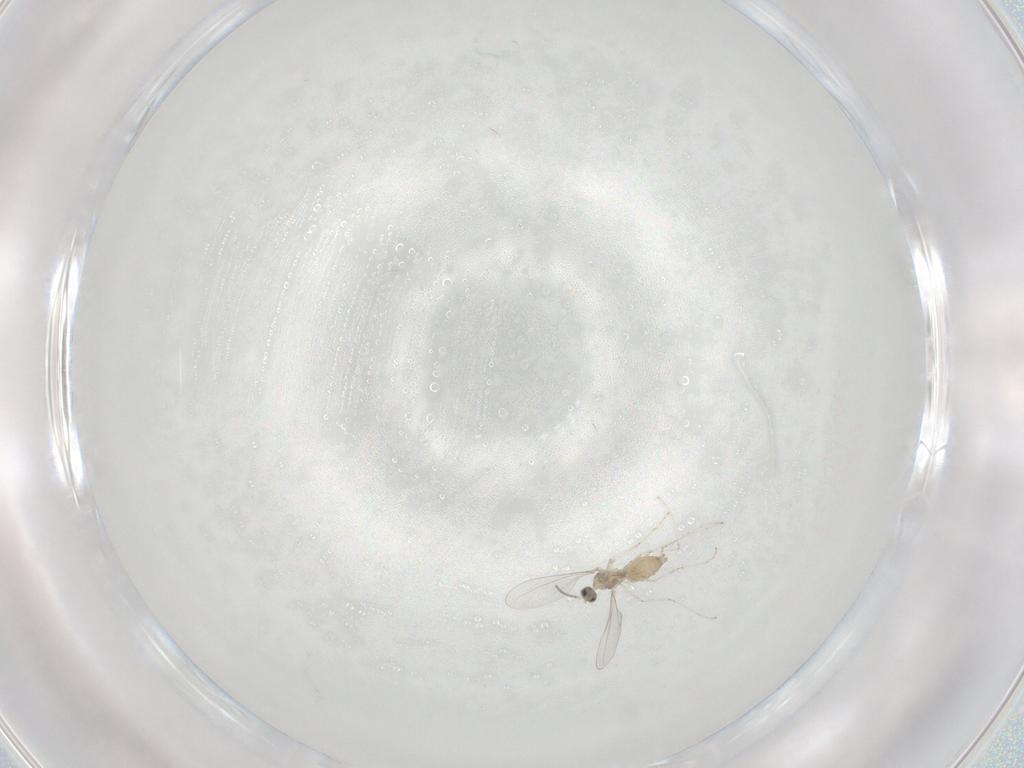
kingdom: Animalia
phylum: Arthropoda
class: Insecta
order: Diptera
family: Cecidomyiidae
